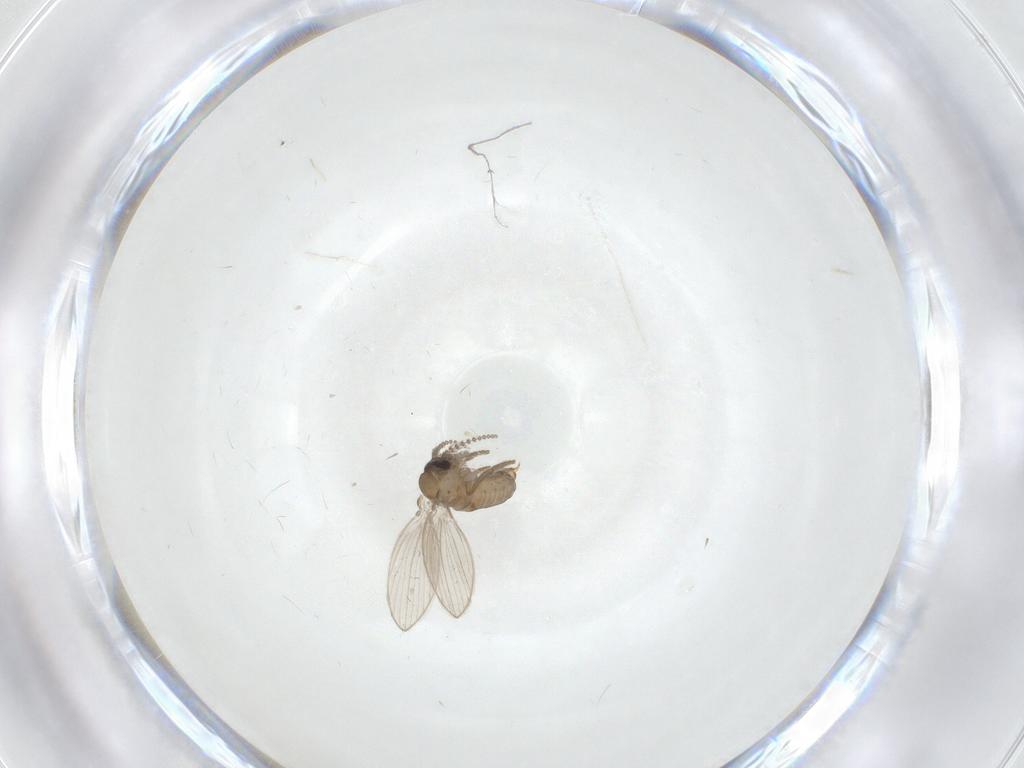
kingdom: Animalia
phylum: Arthropoda
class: Insecta
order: Diptera
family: Psychodidae
